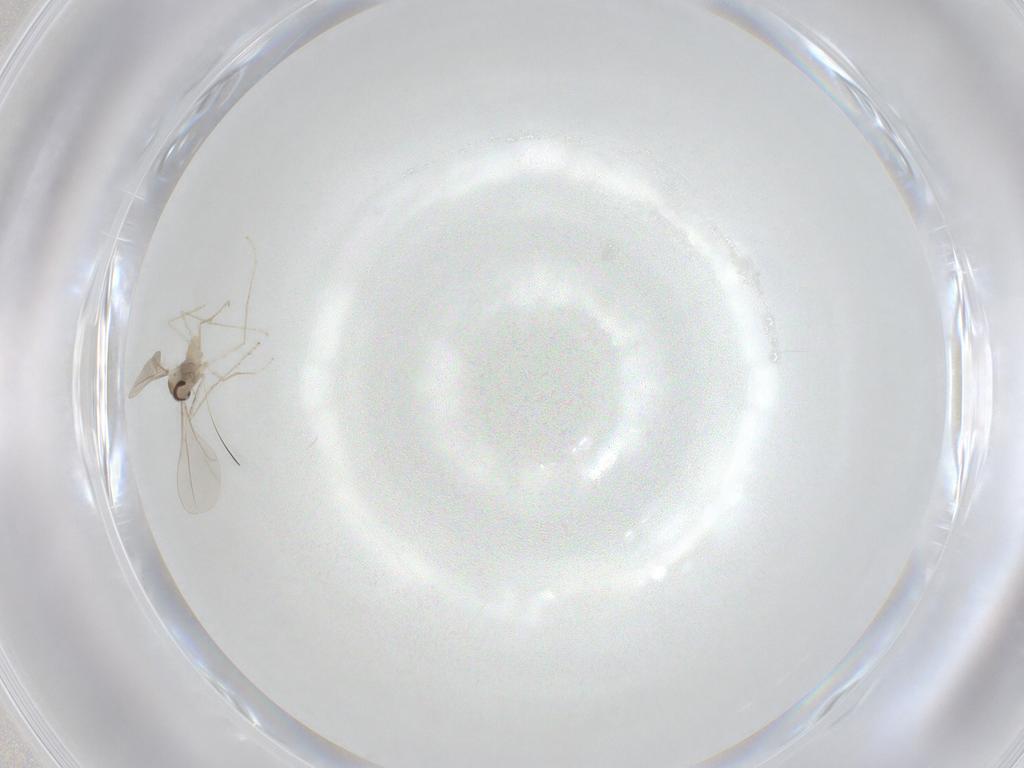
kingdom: Animalia
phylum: Arthropoda
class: Insecta
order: Diptera
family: Cecidomyiidae
